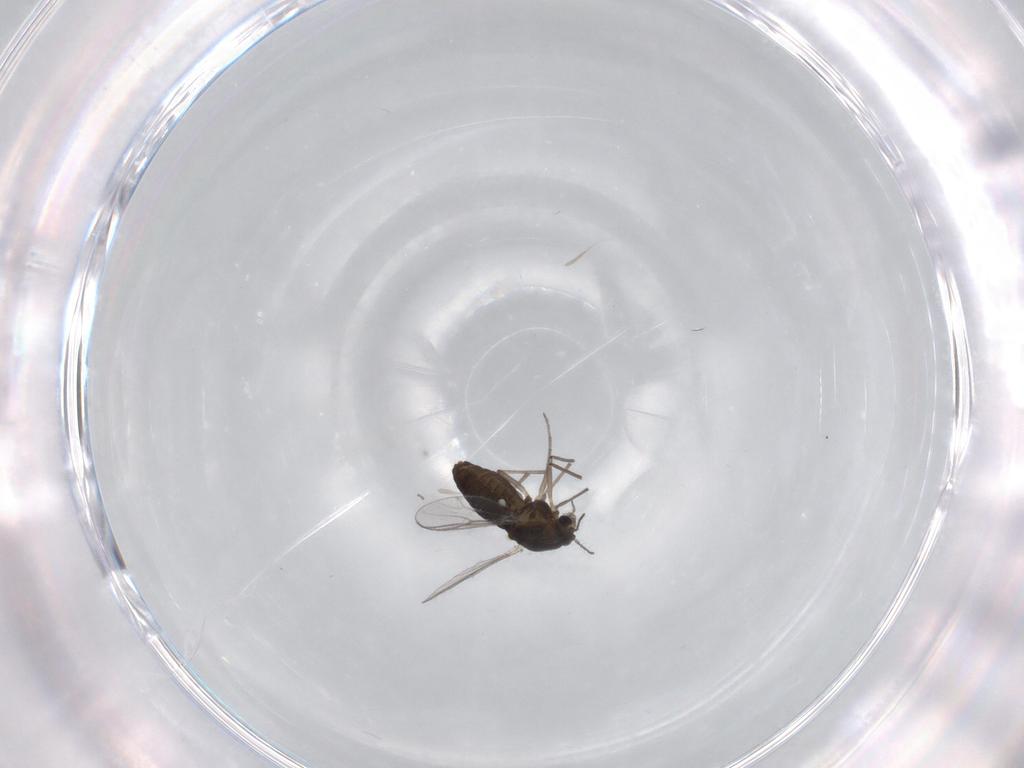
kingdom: Animalia
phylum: Arthropoda
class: Insecta
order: Diptera
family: Chironomidae
